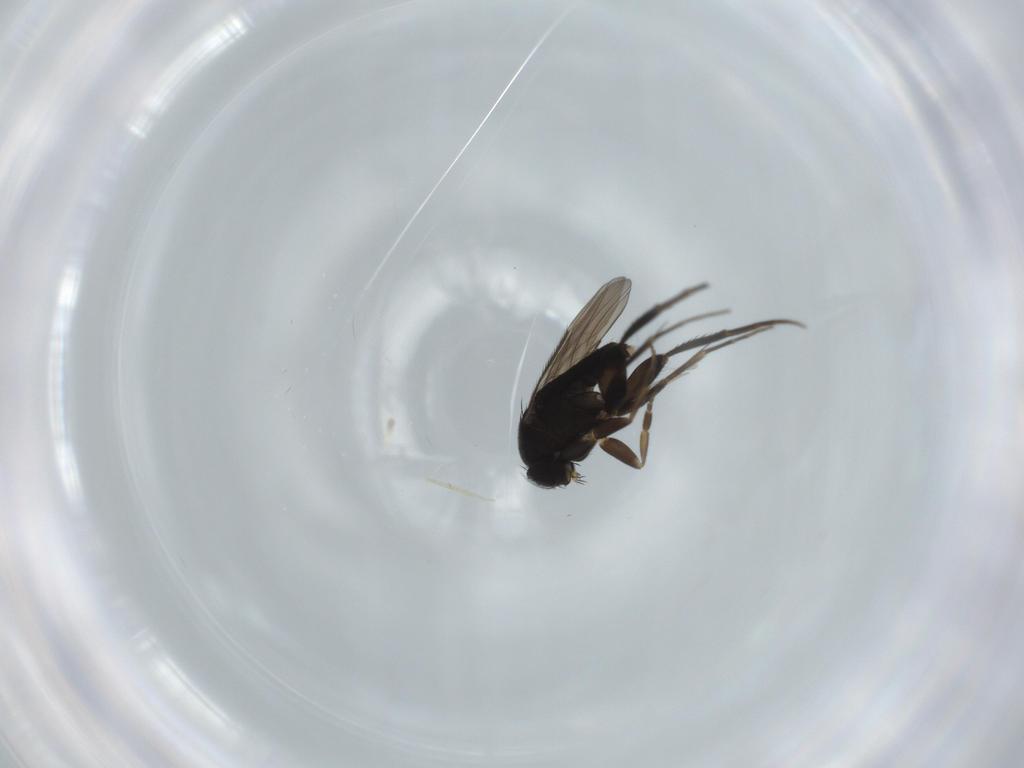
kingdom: Animalia
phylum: Arthropoda
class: Insecta
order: Diptera
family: Phoridae
